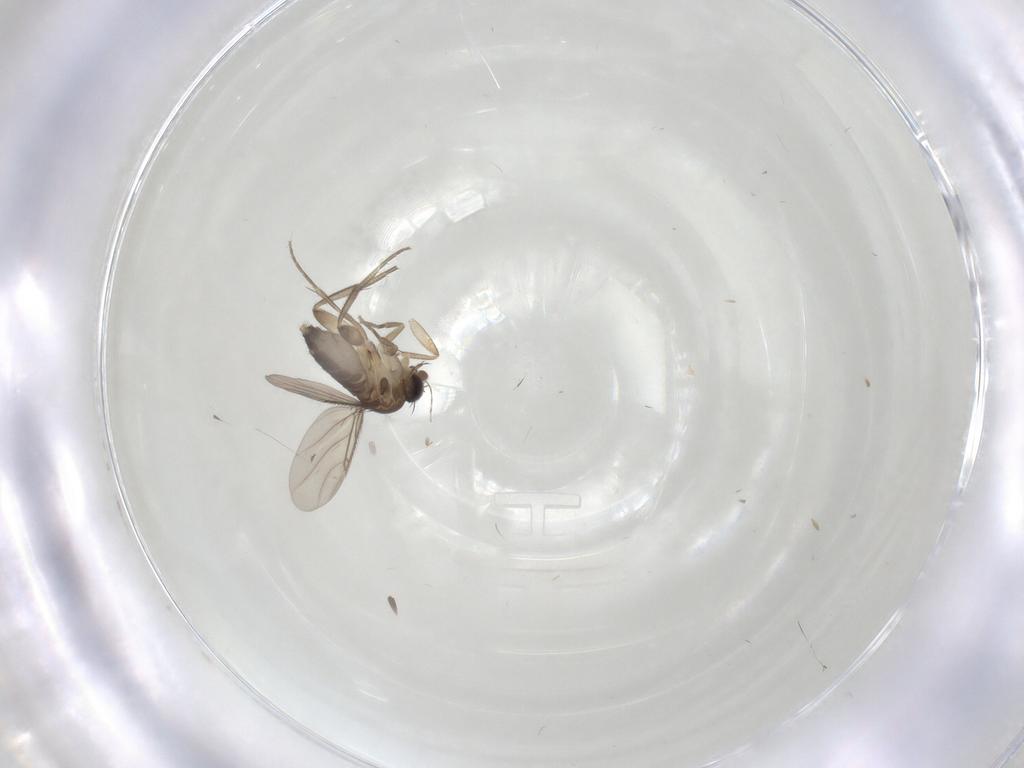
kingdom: Animalia
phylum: Arthropoda
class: Insecta
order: Diptera
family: Phoridae
